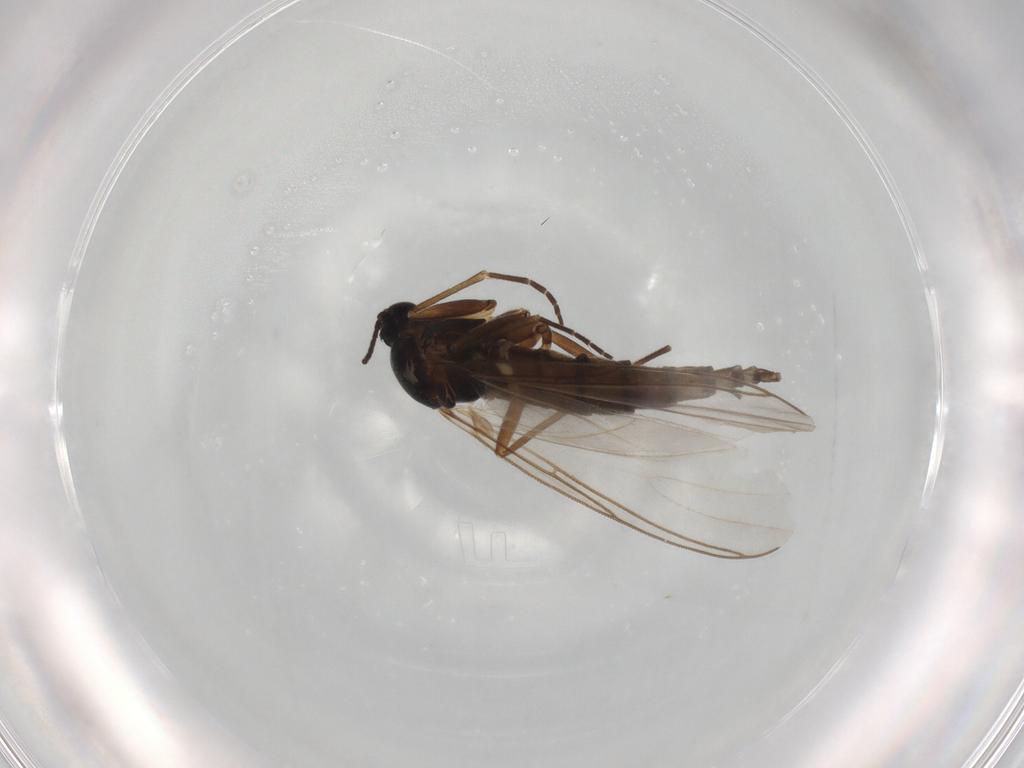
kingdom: Animalia
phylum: Arthropoda
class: Insecta
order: Diptera
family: Sciaridae
